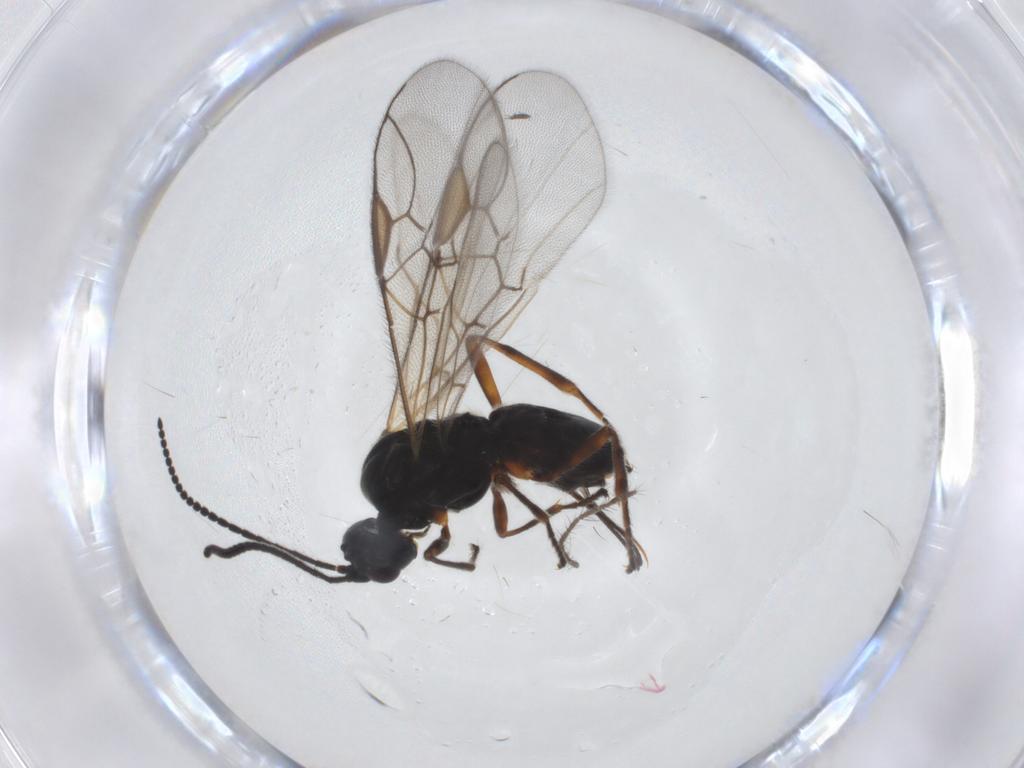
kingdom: Animalia
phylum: Arthropoda
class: Insecta
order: Hymenoptera
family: Braconidae
